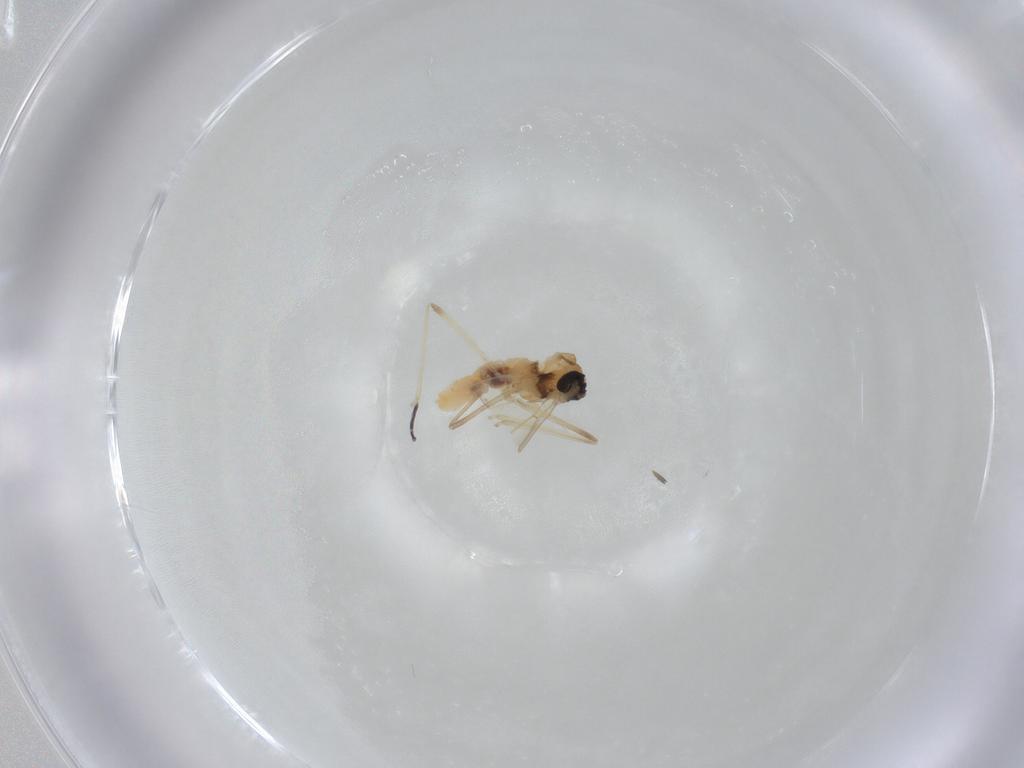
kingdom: Animalia
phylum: Arthropoda
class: Insecta
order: Diptera
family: Cecidomyiidae
